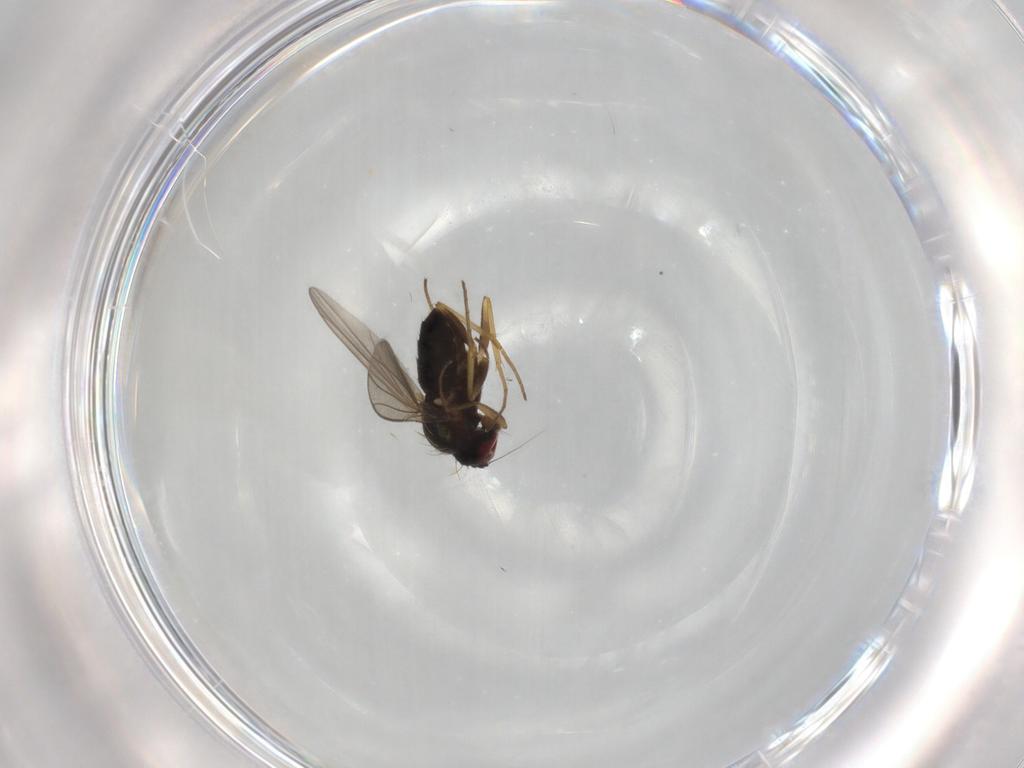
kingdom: Animalia
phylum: Arthropoda
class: Insecta
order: Diptera
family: Dolichopodidae
